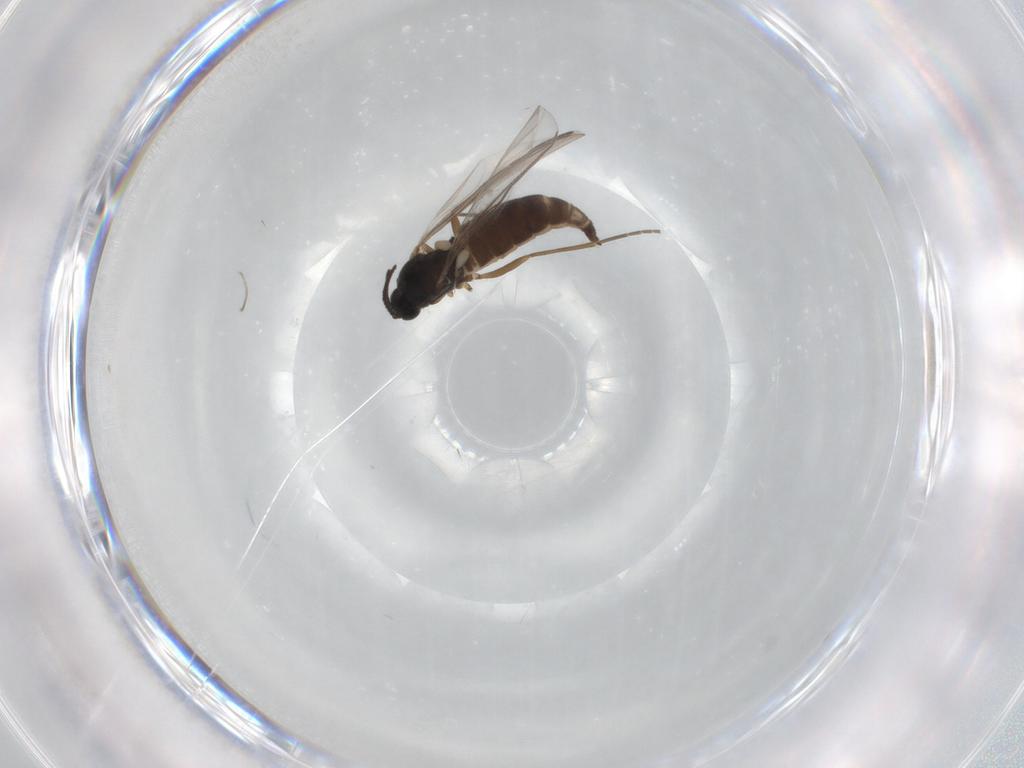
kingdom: Animalia
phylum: Arthropoda
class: Insecta
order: Diptera
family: Sciaridae
